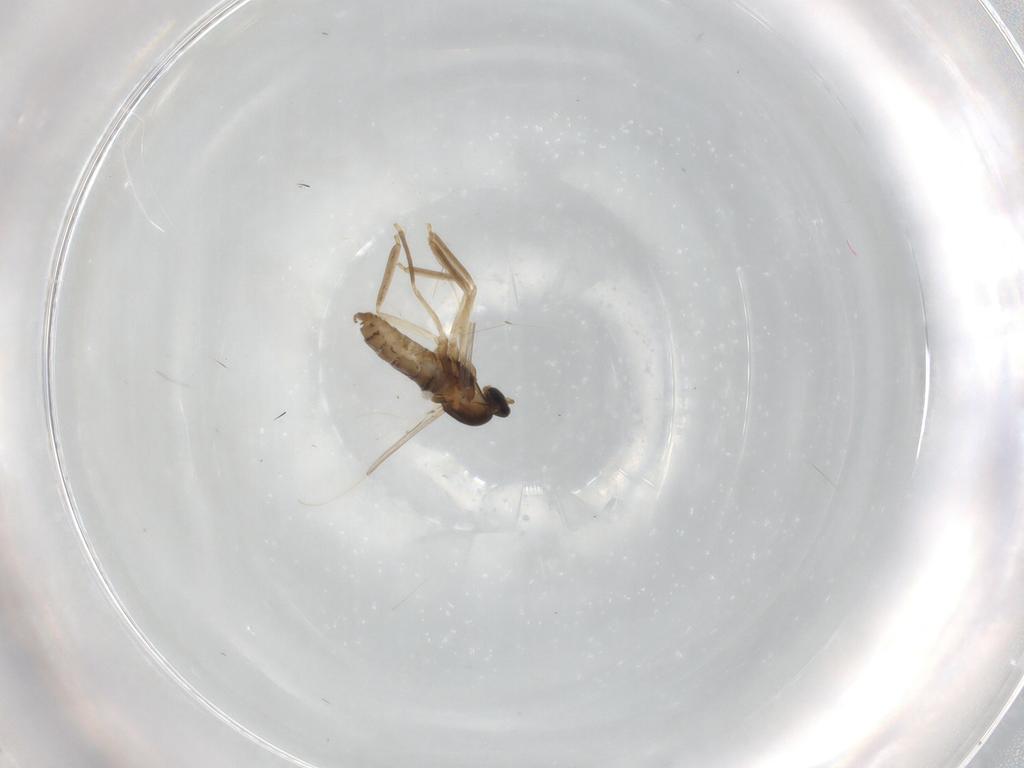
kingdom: Animalia
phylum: Arthropoda
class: Insecta
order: Diptera
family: Cecidomyiidae
